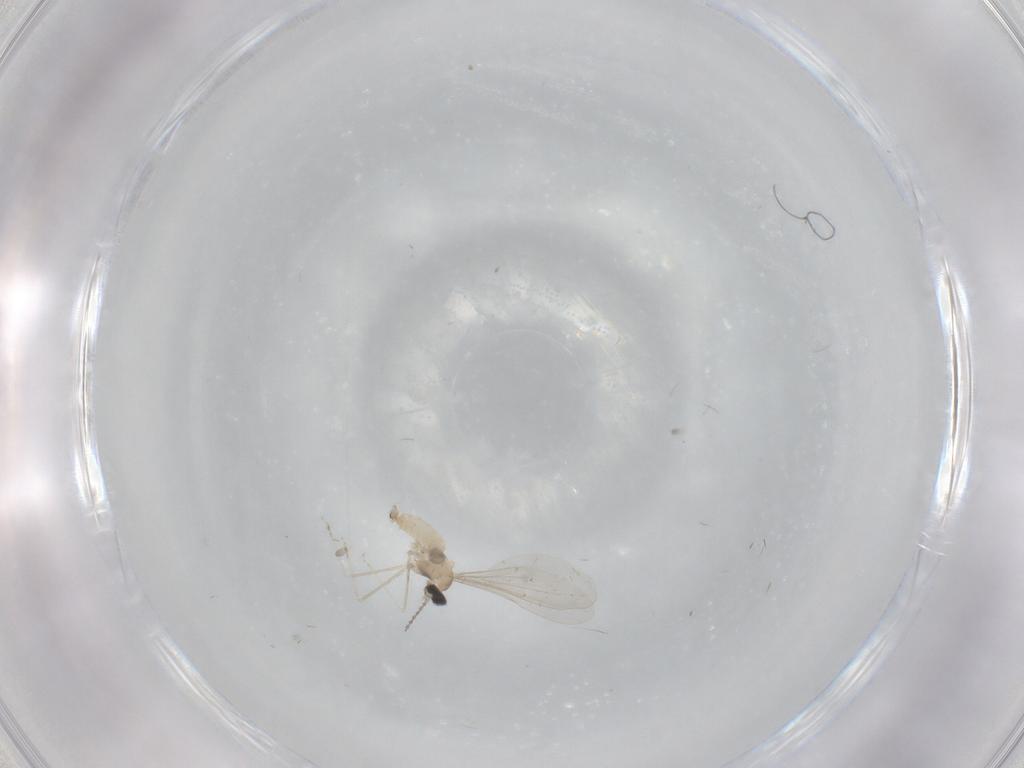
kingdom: Animalia
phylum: Arthropoda
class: Insecta
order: Diptera
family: Cecidomyiidae
